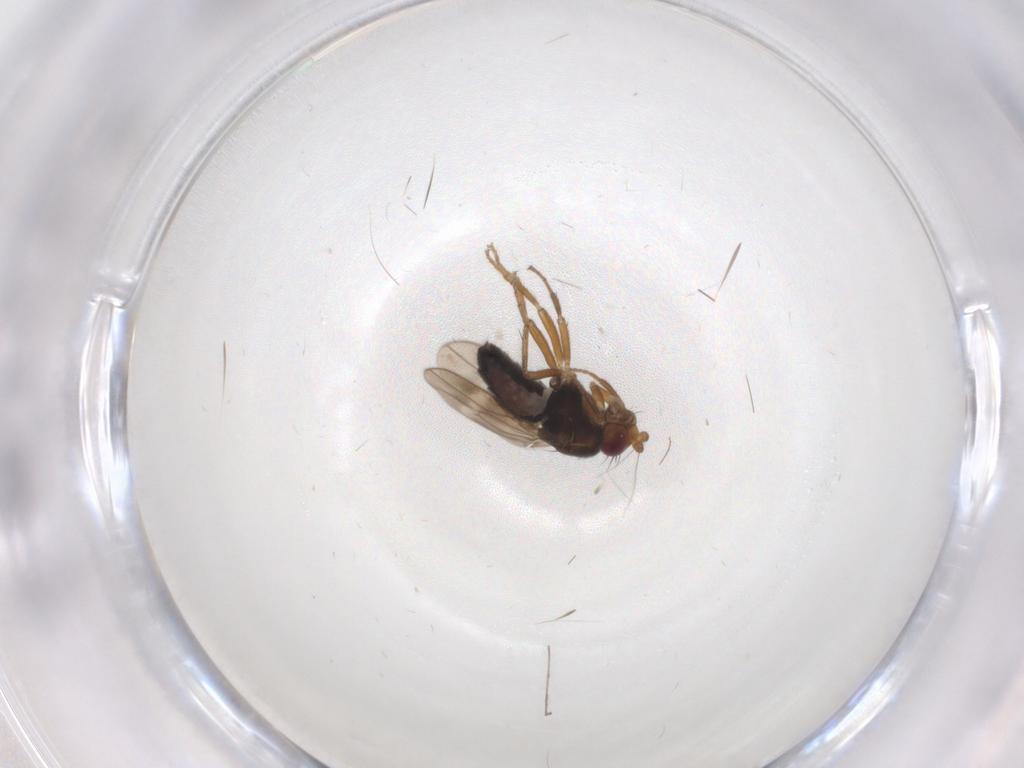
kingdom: Animalia
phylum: Arthropoda
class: Insecta
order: Diptera
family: Sphaeroceridae
